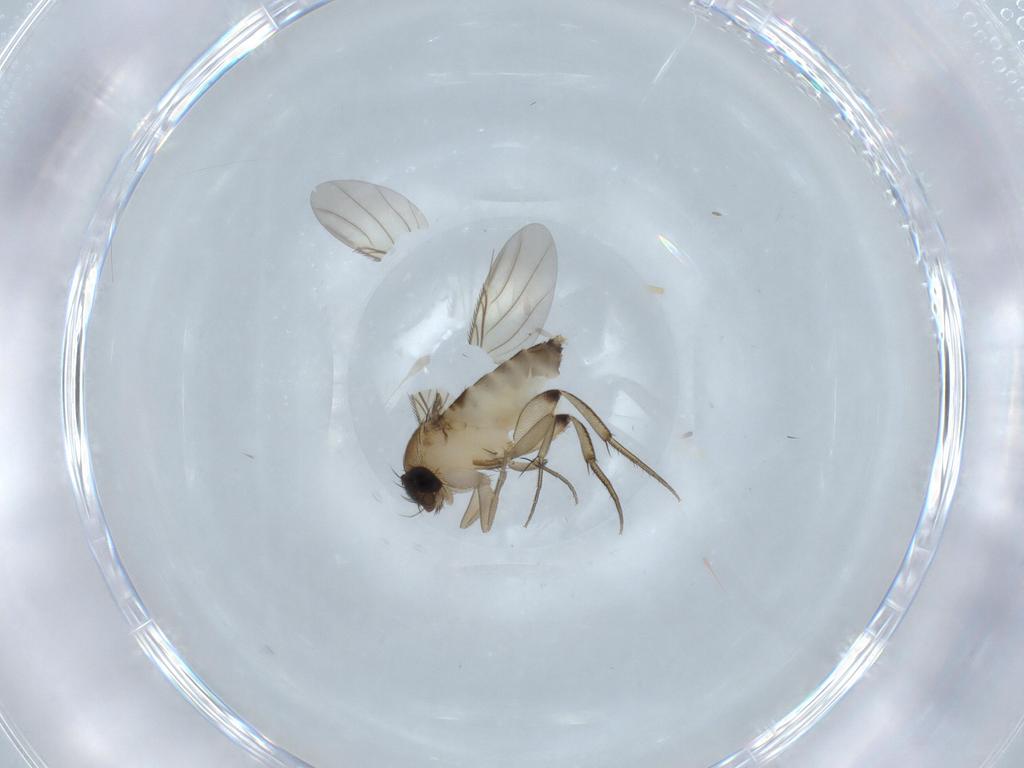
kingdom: Animalia
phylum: Arthropoda
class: Insecta
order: Diptera
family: Phoridae
